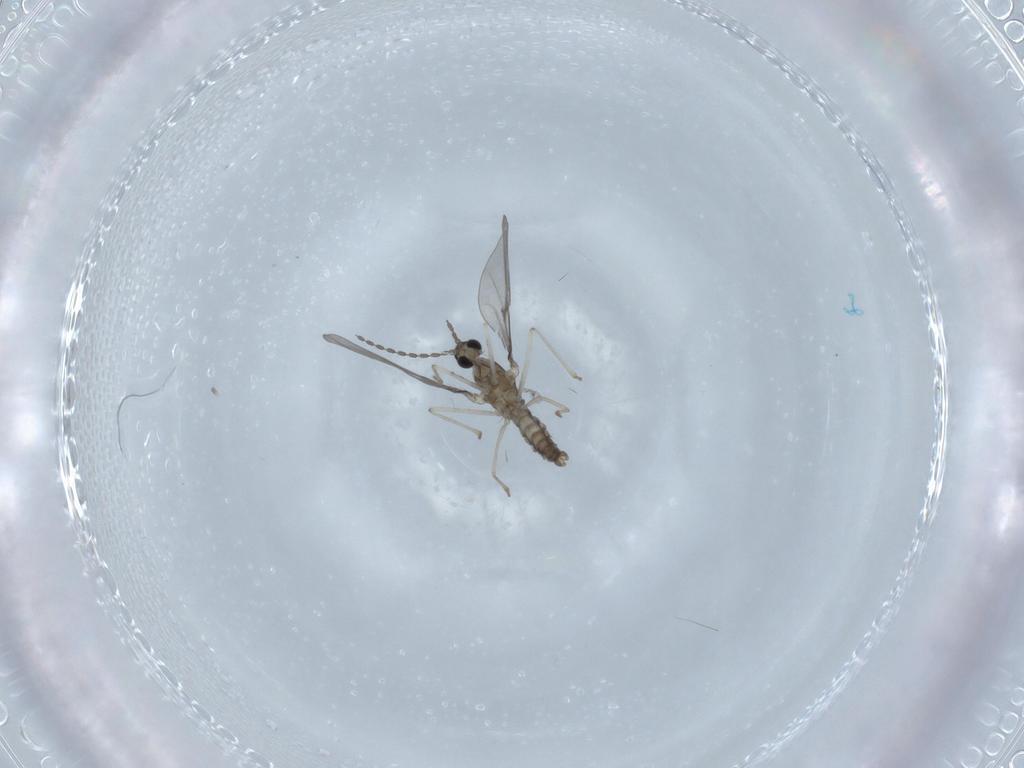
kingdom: Animalia
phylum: Arthropoda
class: Insecta
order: Diptera
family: Cecidomyiidae
